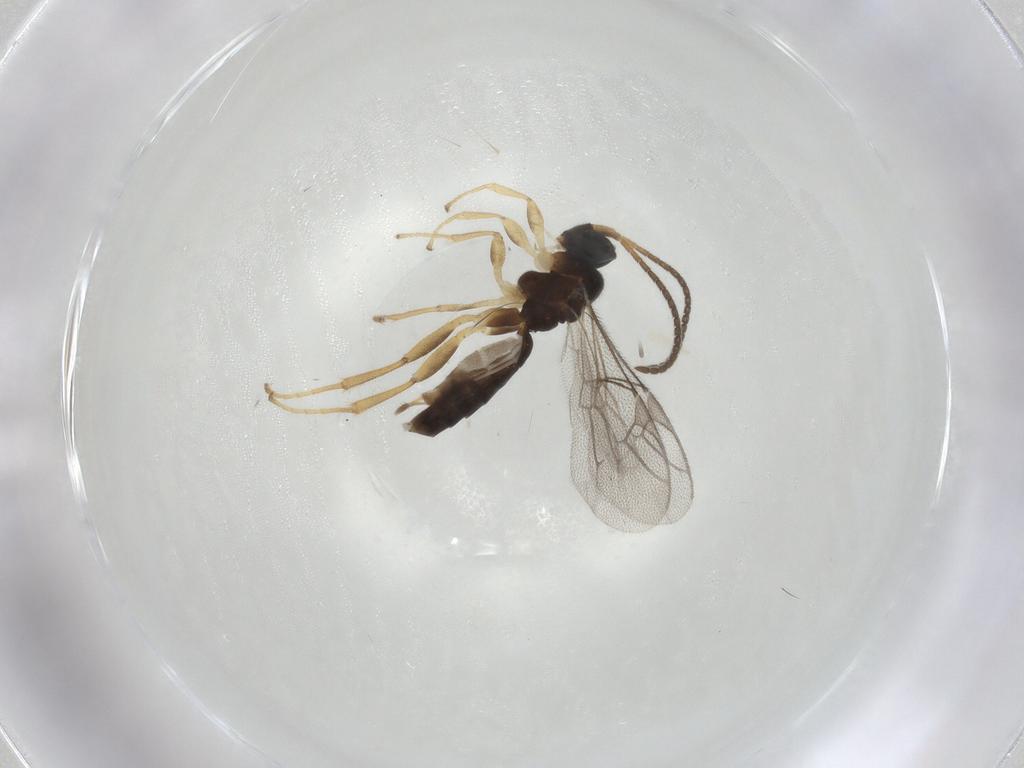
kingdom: Animalia
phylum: Arthropoda
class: Insecta
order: Hymenoptera
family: Ichneumonidae
